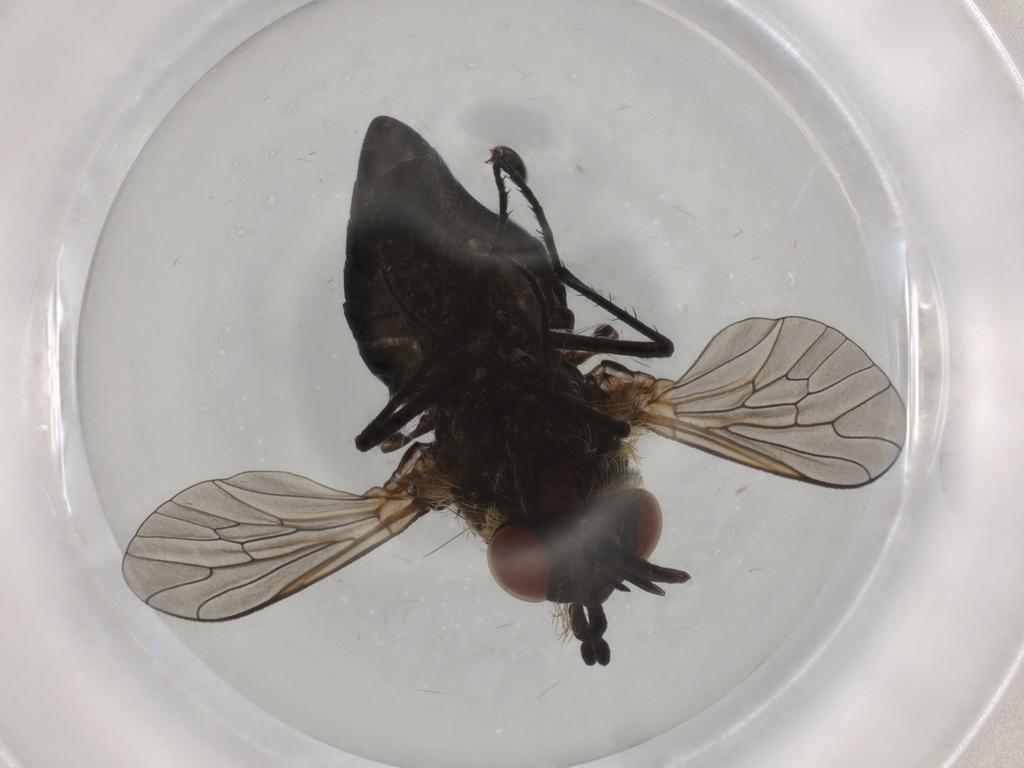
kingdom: Animalia
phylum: Arthropoda
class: Insecta
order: Diptera
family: Bombyliidae
